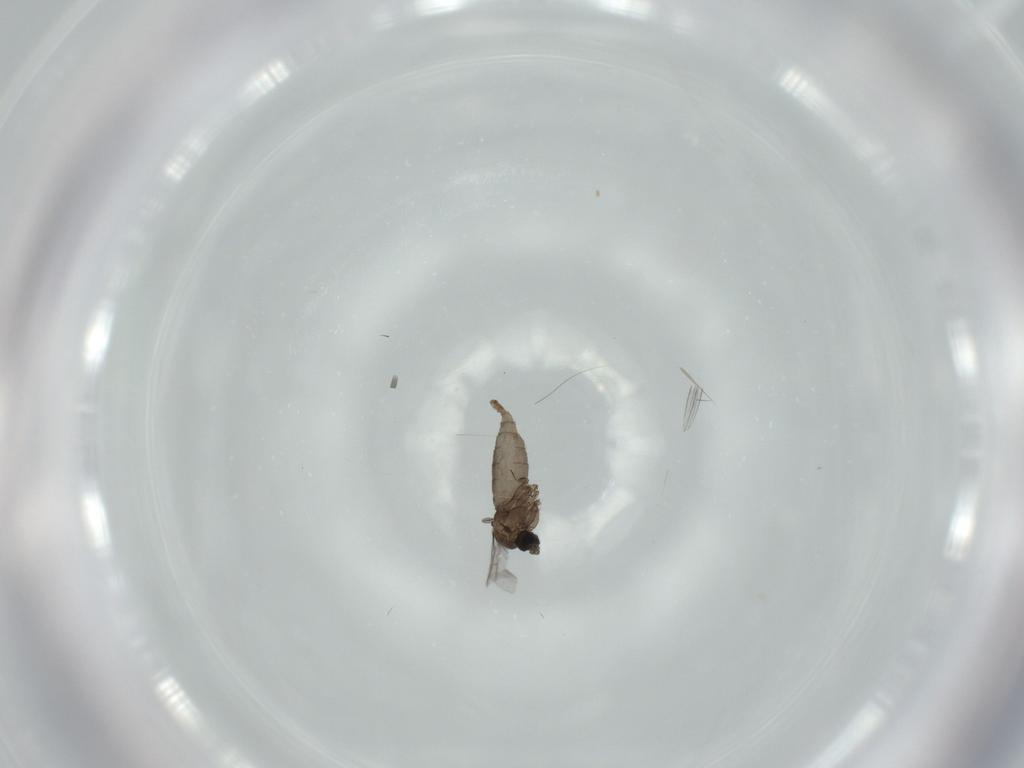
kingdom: Animalia
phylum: Arthropoda
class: Insecta
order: Diptera
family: Sciaridae
